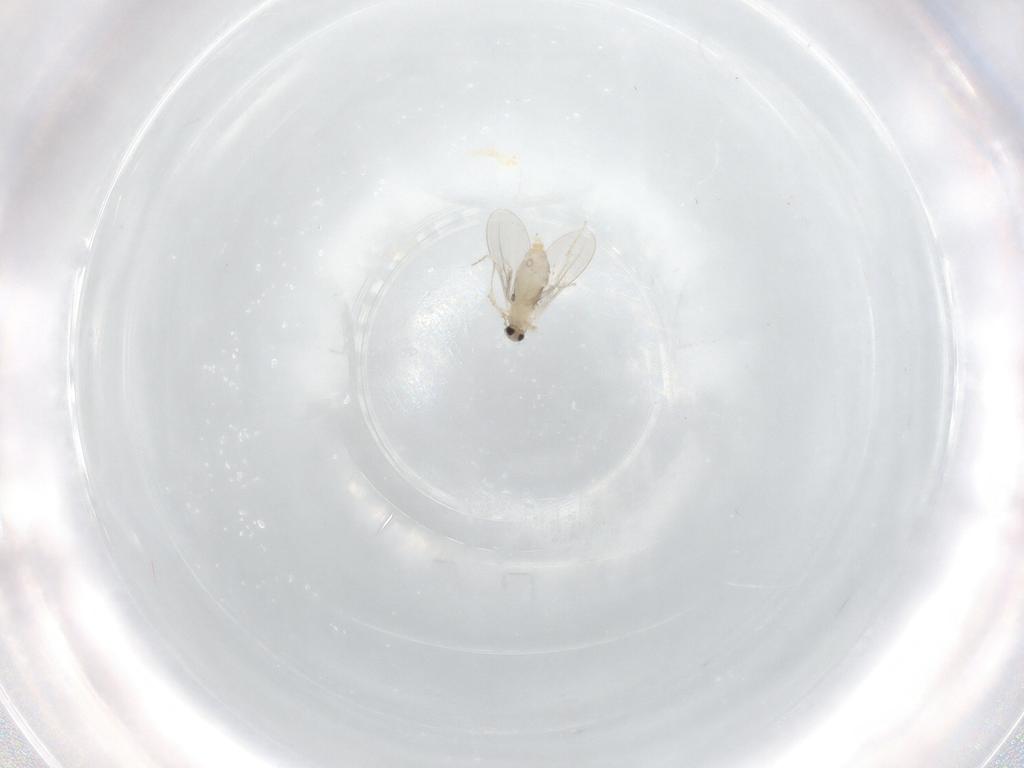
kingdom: Animalia
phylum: Arthropoda
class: Insecta
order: Diptera
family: Cecidomyiidae
